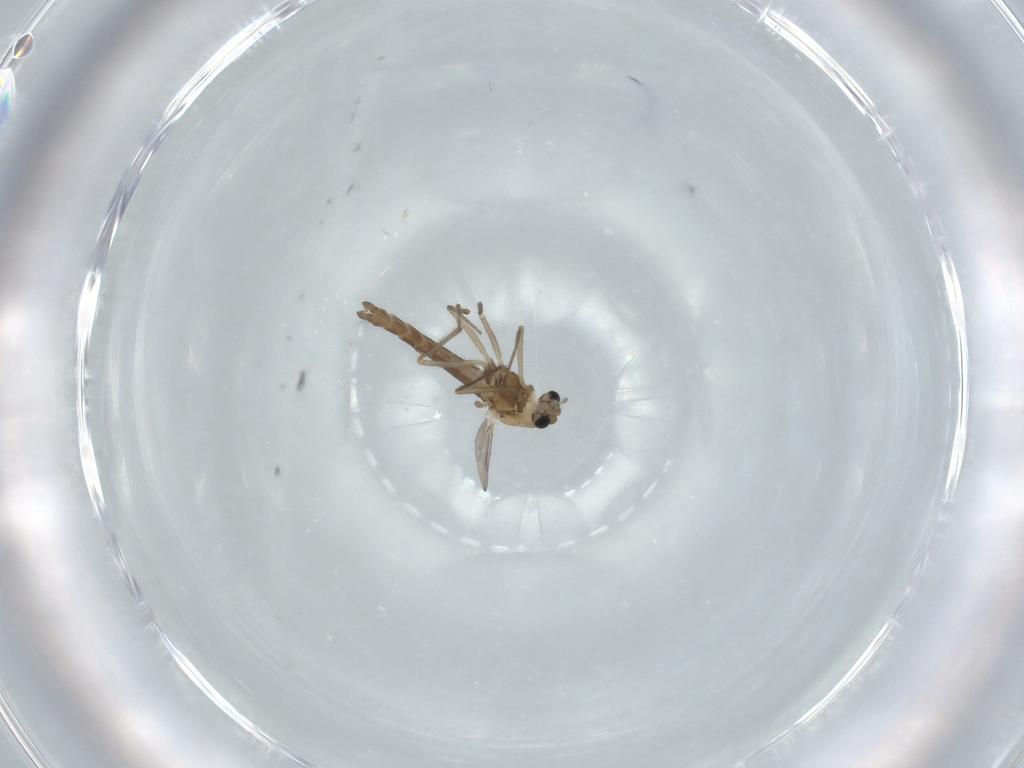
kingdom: Animalia
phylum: Arthropoda
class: Insecta
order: Diptera
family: Chironomidae
